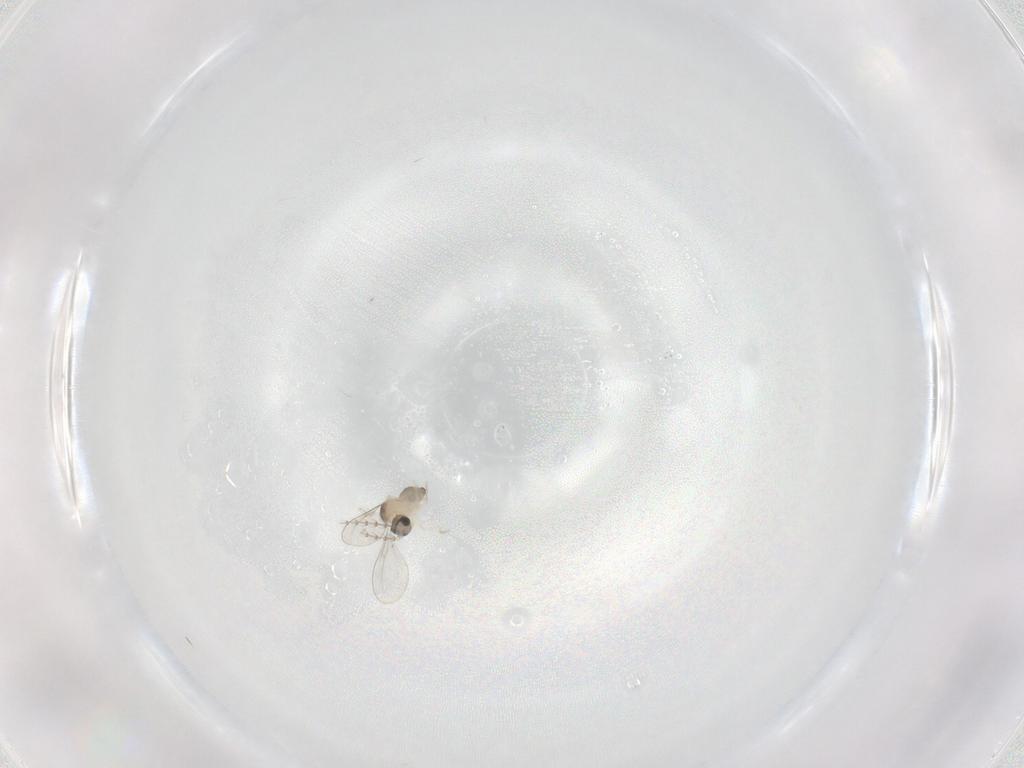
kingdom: Animalia
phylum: Arthropoda
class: Insecta
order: Diptera
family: Cecidomyiidae
